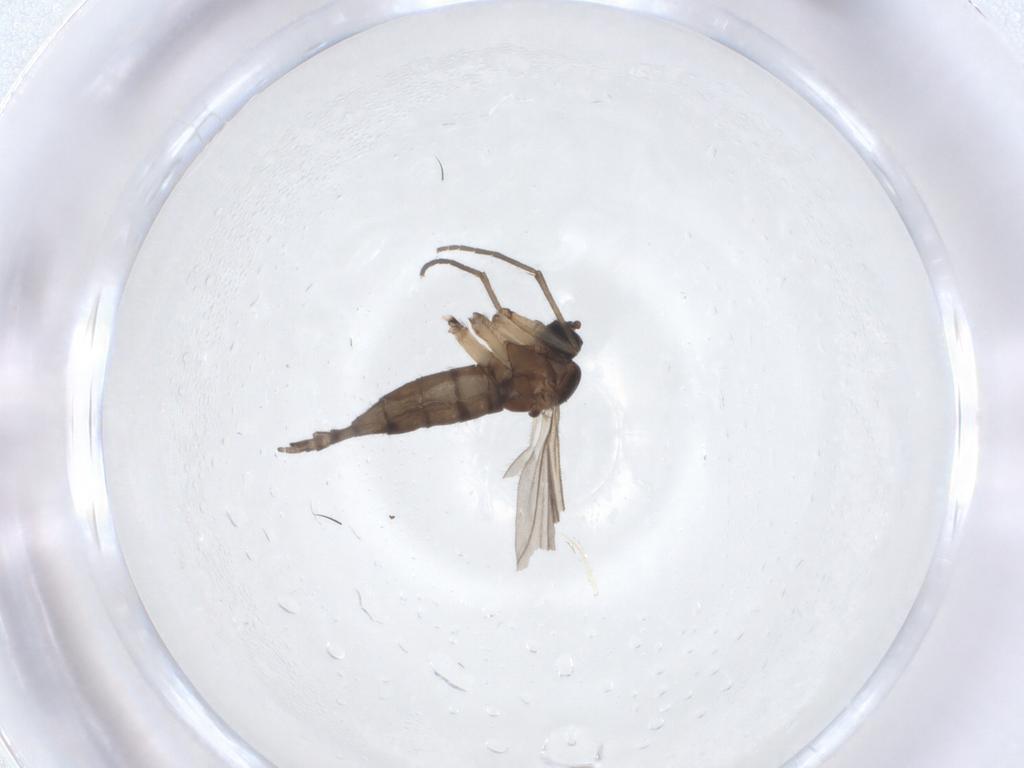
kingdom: Animalia
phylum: Arthropoda
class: Insecta
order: Diptera
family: Sciaridae
